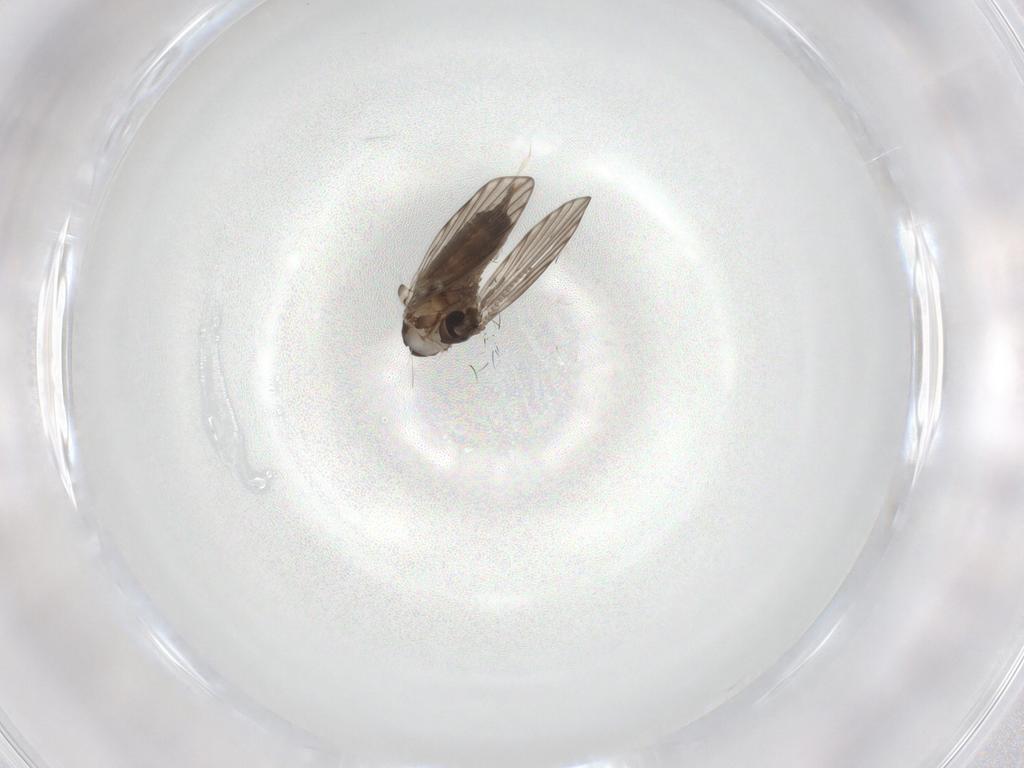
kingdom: Animalia
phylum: Arthropoda
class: Insecta
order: Diptera
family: Psychodidae
